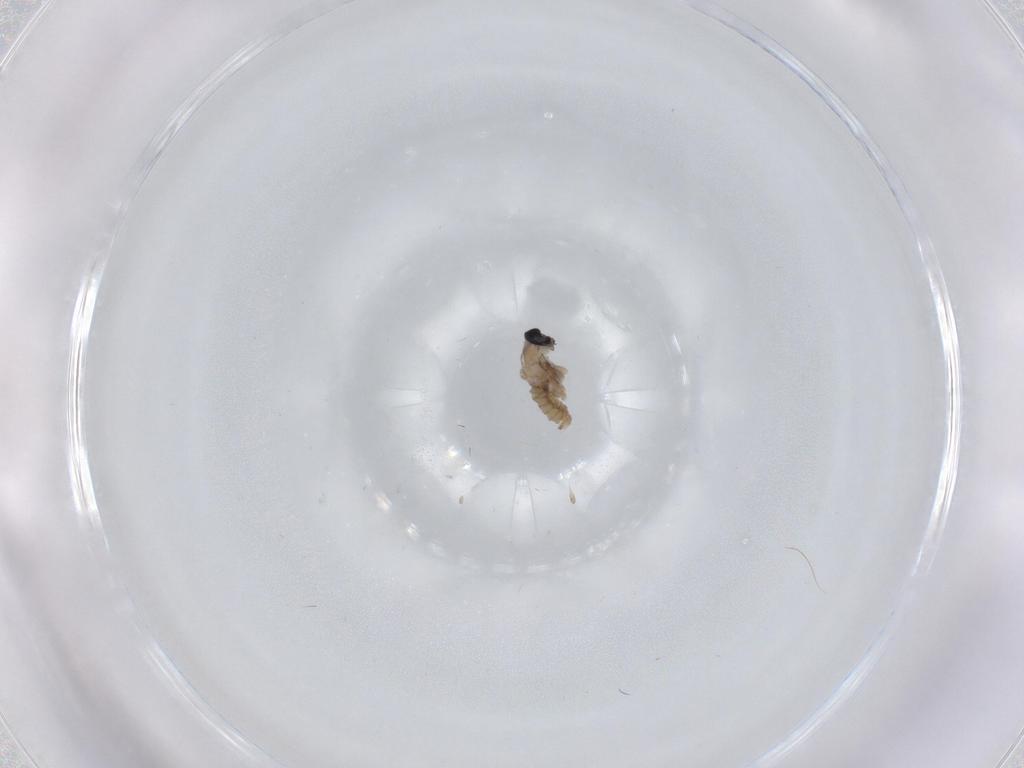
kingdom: Animalia
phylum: Arthropoda
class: Insecta
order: Diptera
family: Cecidomyiidae
